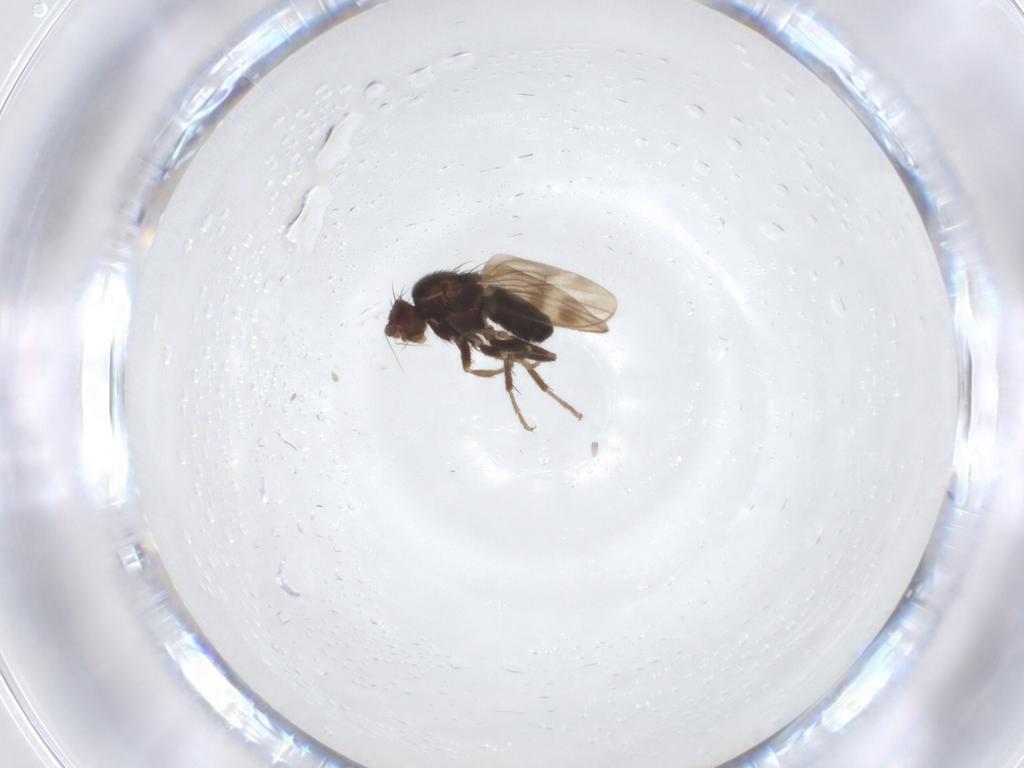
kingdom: Animalia
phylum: Arthropoda
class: Insecta
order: Diptera
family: Sphaeroceridae
